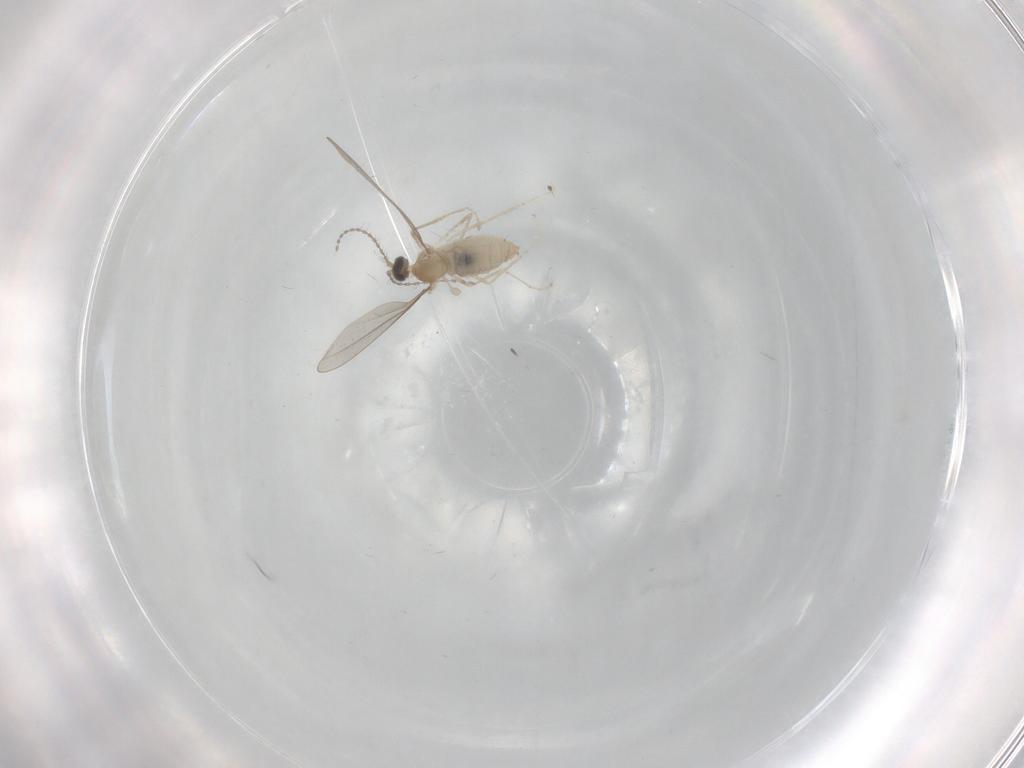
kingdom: Animalia
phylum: Arthropoda
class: Insecta
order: Diptera
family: Cecidomyiidae
